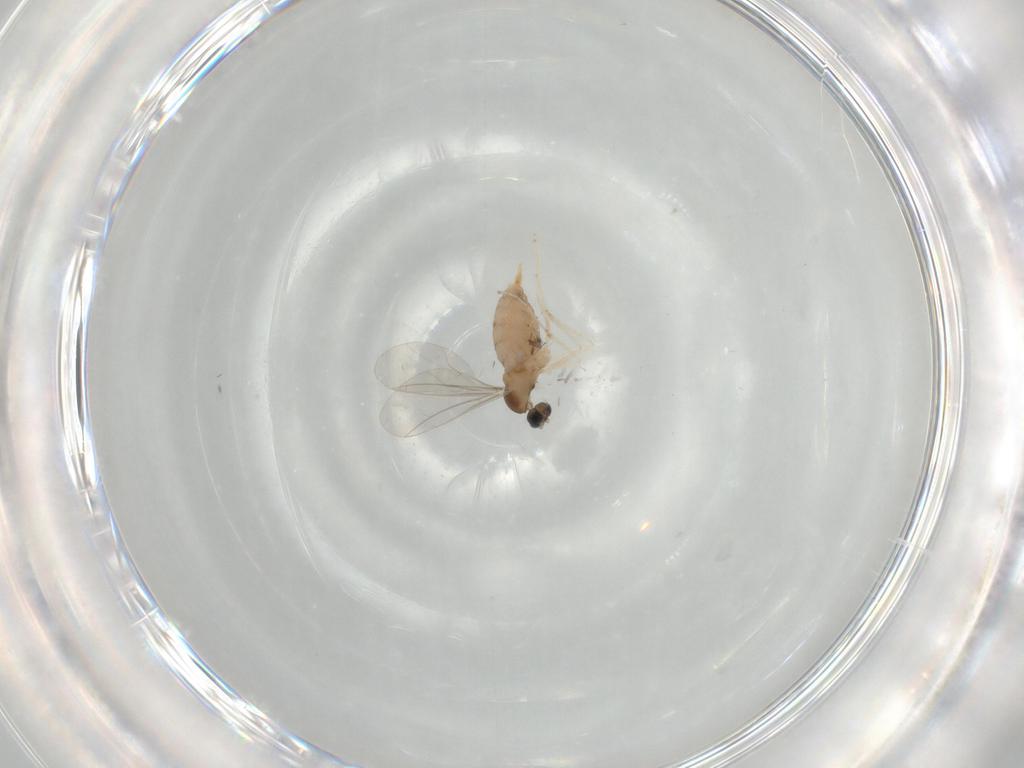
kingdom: Animalia
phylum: Arthropoda
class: Insecta
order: Diptera
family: Cecidomyiidae
